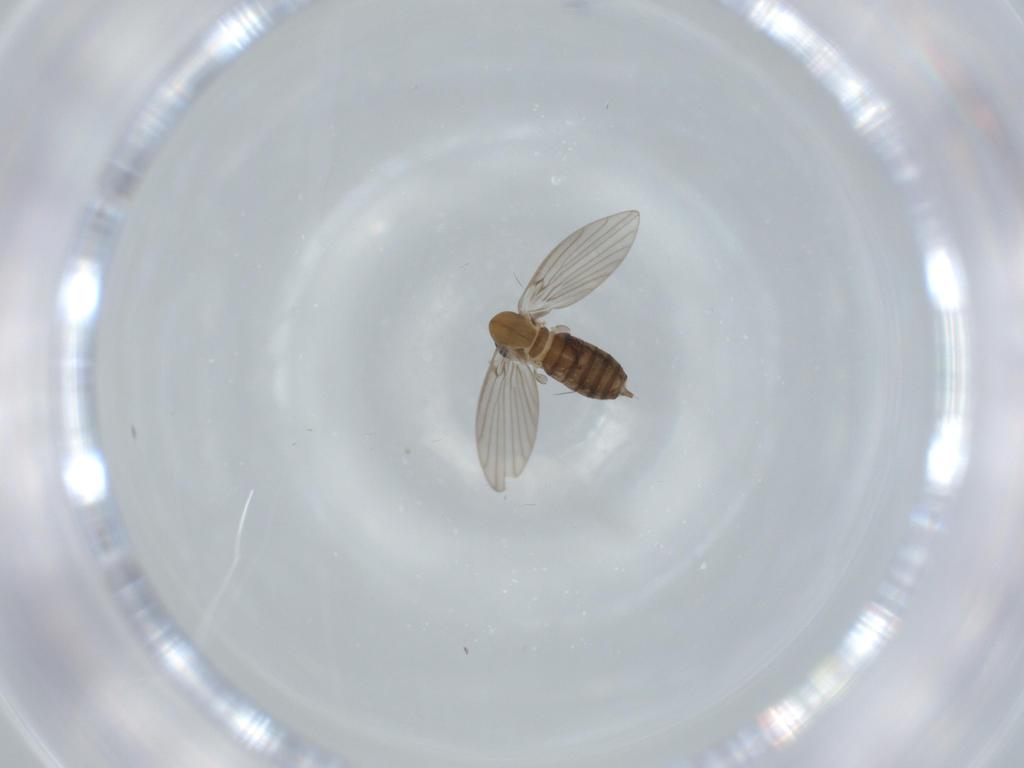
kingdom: Animalia
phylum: Arthropoda
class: Insecta
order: Diptera
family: Psychodidae
